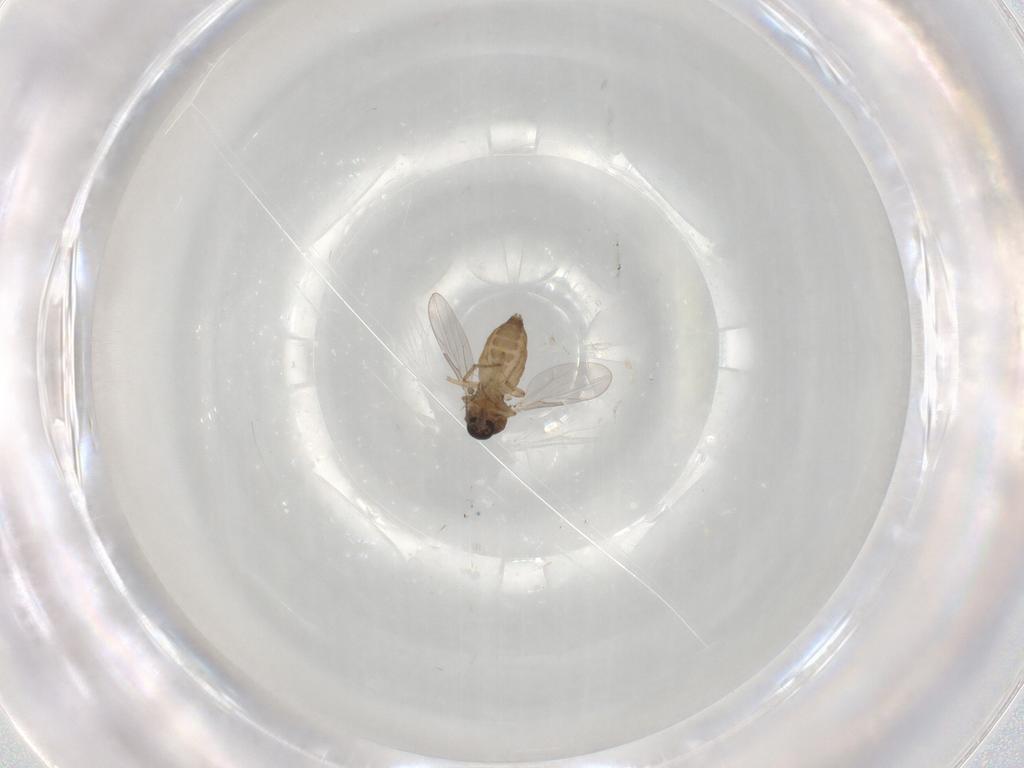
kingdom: Animalia
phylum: Arthropoda
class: Insecta
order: Diptera
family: Ceratopogonidae
